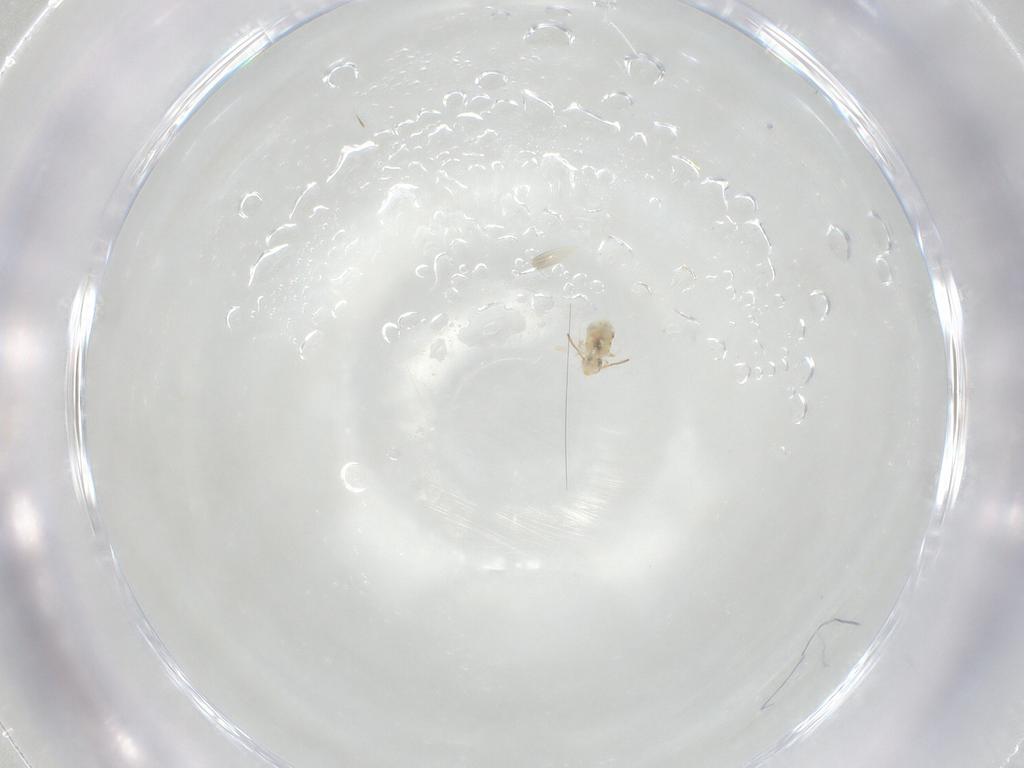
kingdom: Animalia
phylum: Arthropoda
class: Collembola
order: Symphypleona
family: Bourletiellidae
